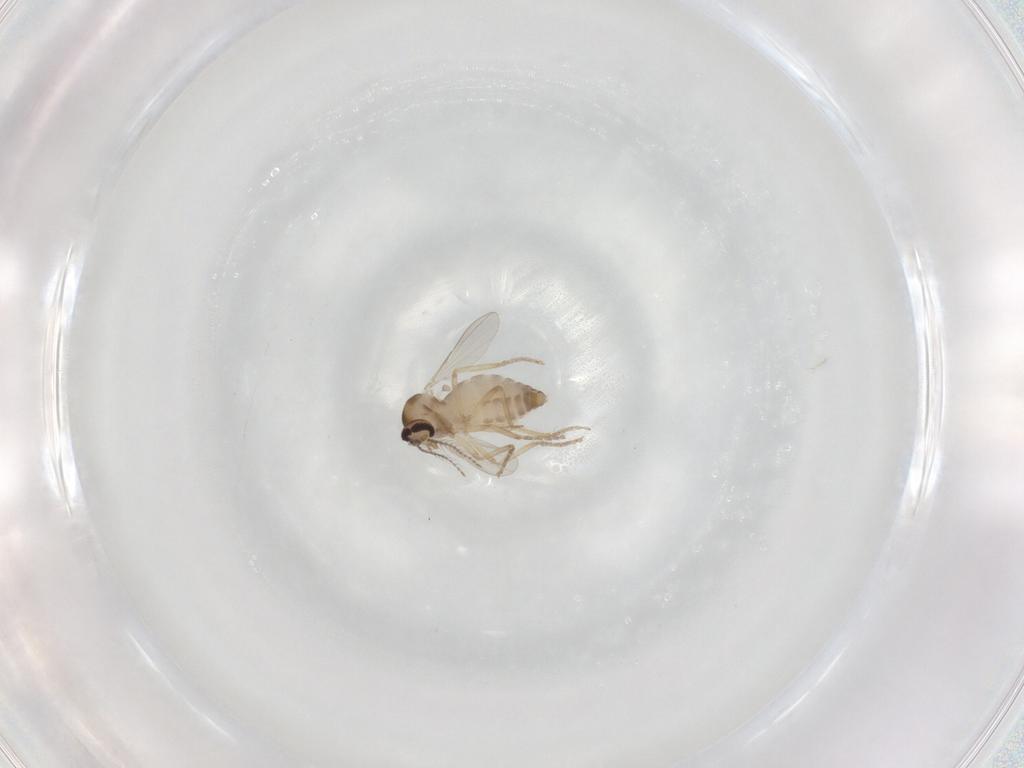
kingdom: Animalia
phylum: Arthropoda
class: Insecta
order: Diptera
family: Ceratopogonidae
